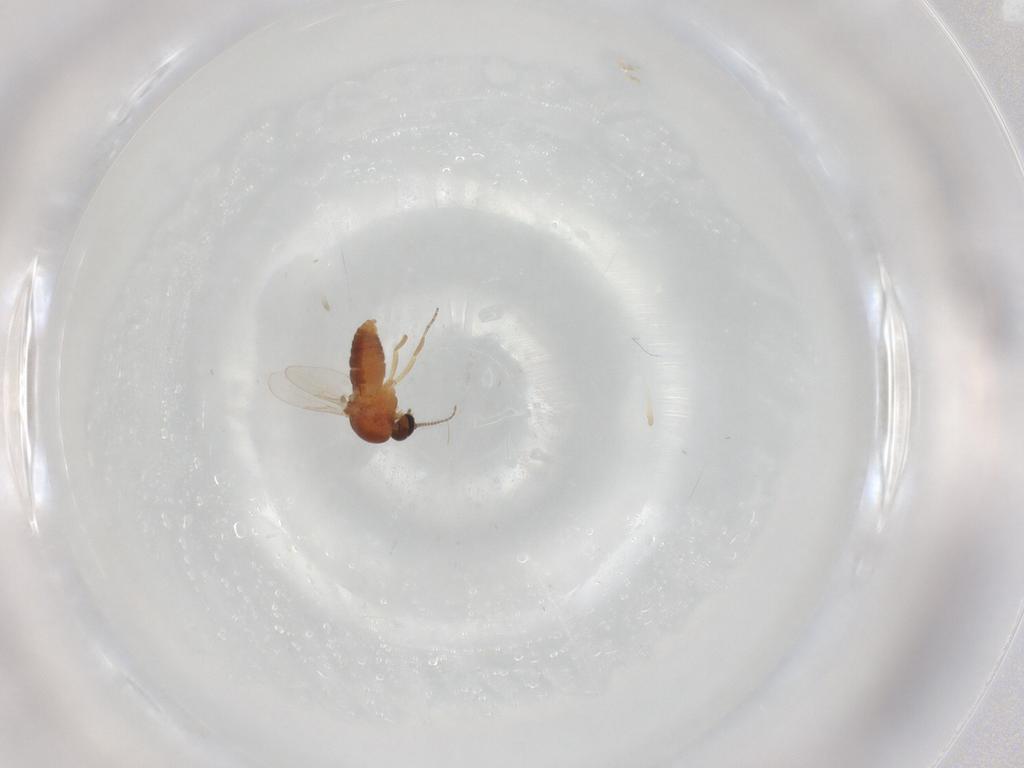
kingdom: Animalia
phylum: Arthropoda
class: Insecta
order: Diptera
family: Ceratopogonidae
